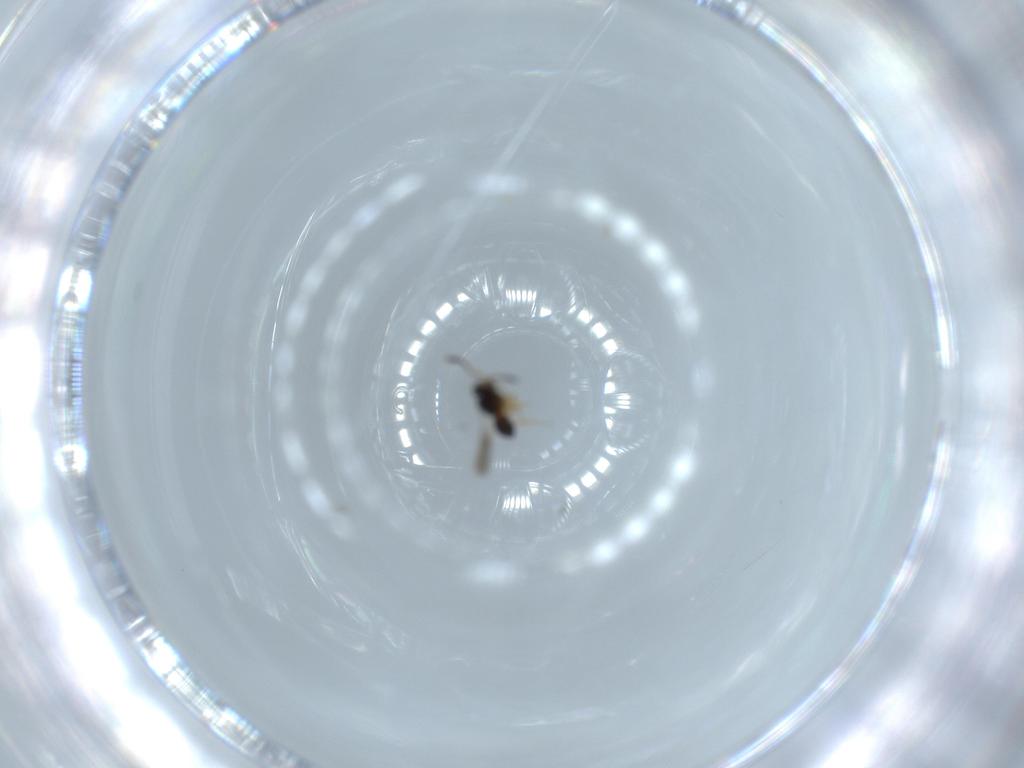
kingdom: Animalia
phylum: Arthropoda
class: Insecta
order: Hymenoptera
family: Scelionidae
